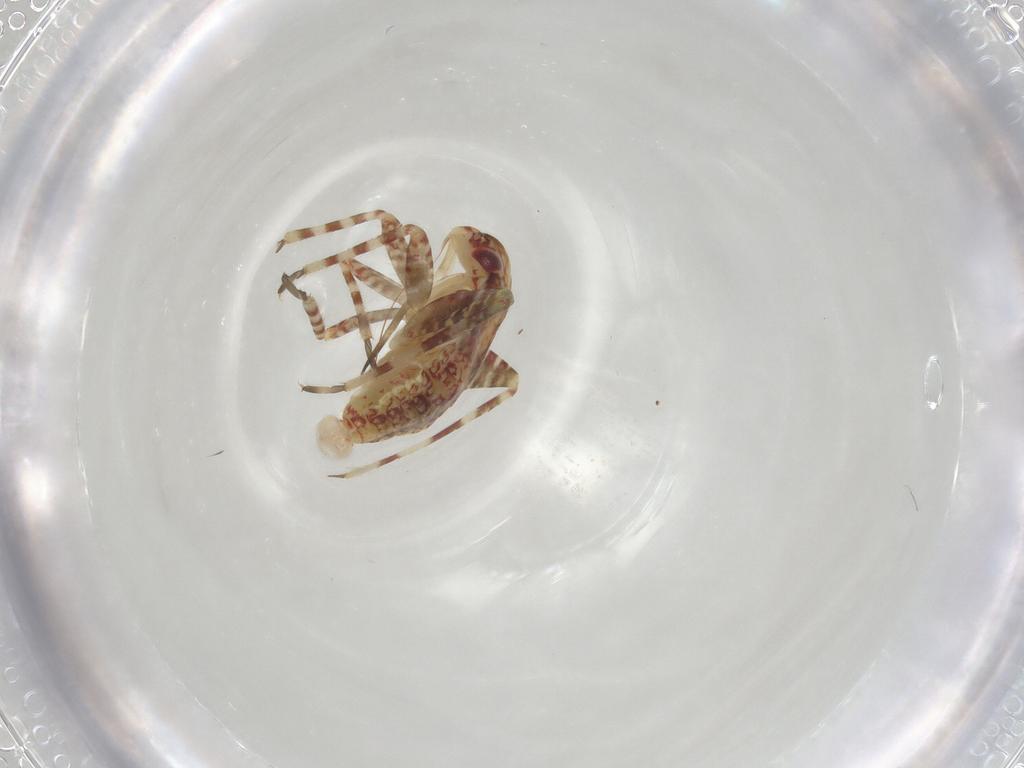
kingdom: Animalia
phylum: Arthropoda
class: Insecta
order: Hemiptera
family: Miridae
